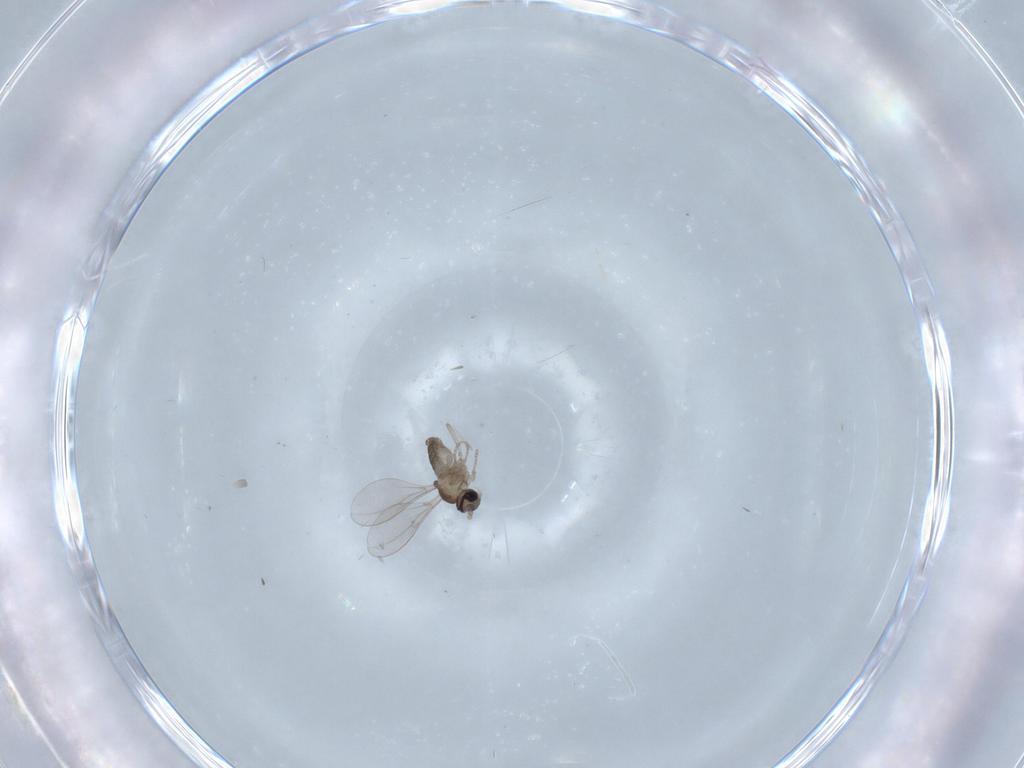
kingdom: Animalia
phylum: Arthropoda
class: Insecta
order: Diptera
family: Cecidomyiidae
